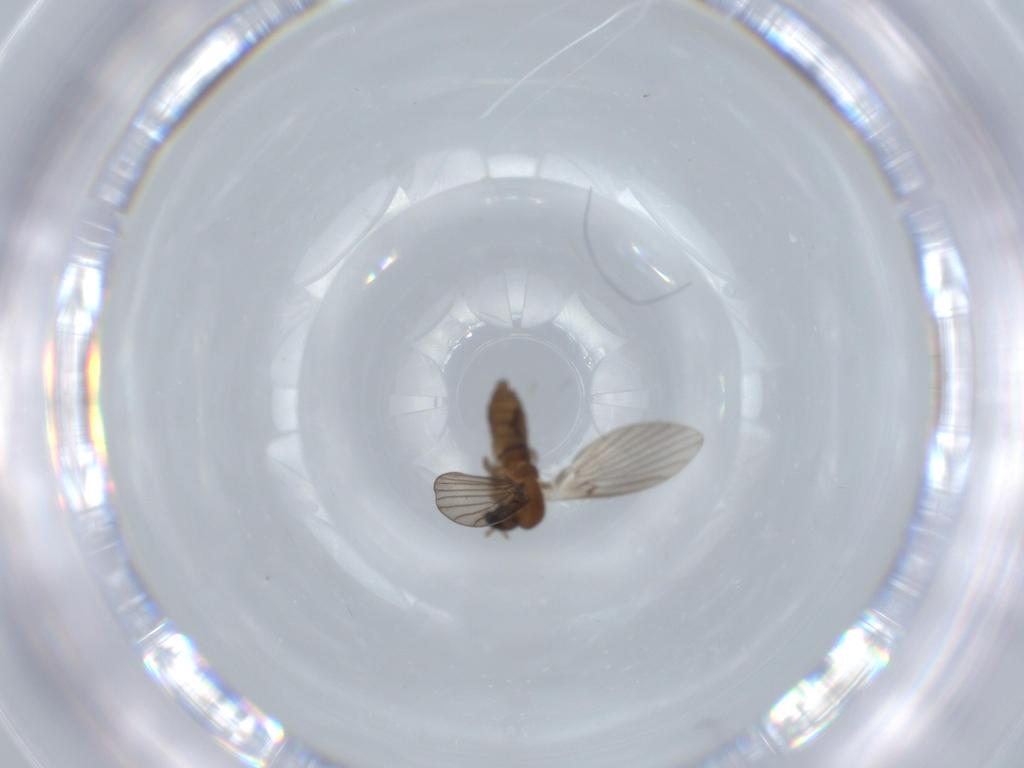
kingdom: Animalia
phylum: Arthropoda
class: Insecta
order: Diptera
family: Psychodidae
